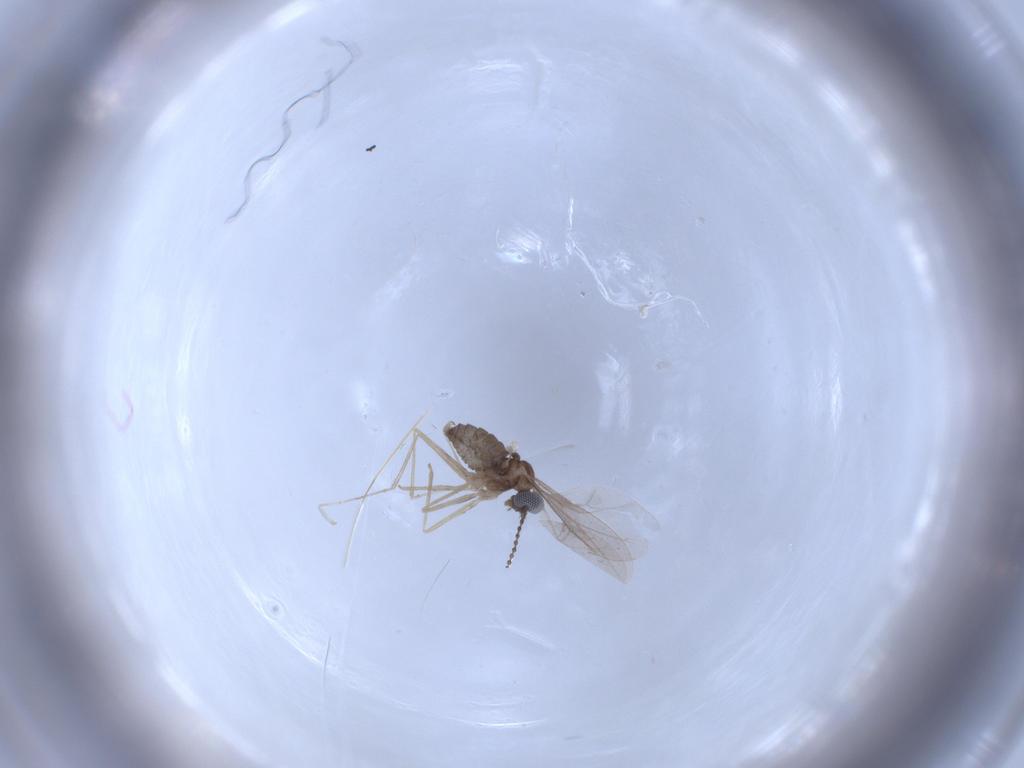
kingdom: Animalia
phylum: Arthropoda
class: Insecta
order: Diptera
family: Cecidomyiidae
